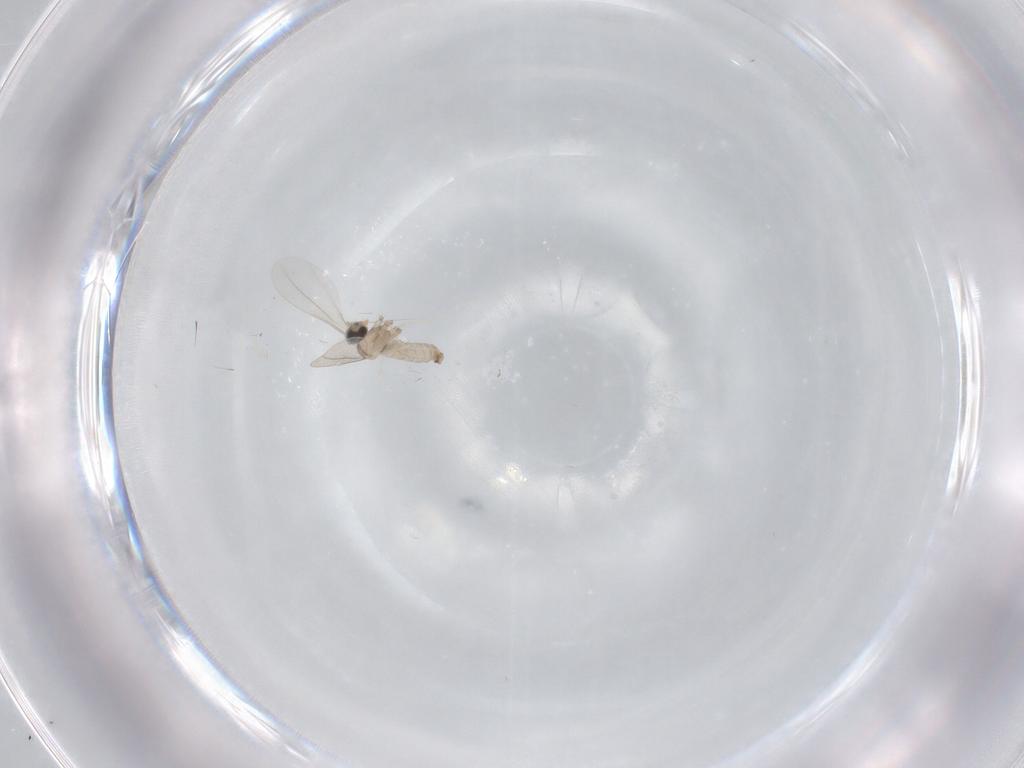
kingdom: Animalia
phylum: Arthropoda
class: Insecta
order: Diptera
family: Cecidomyiidae
